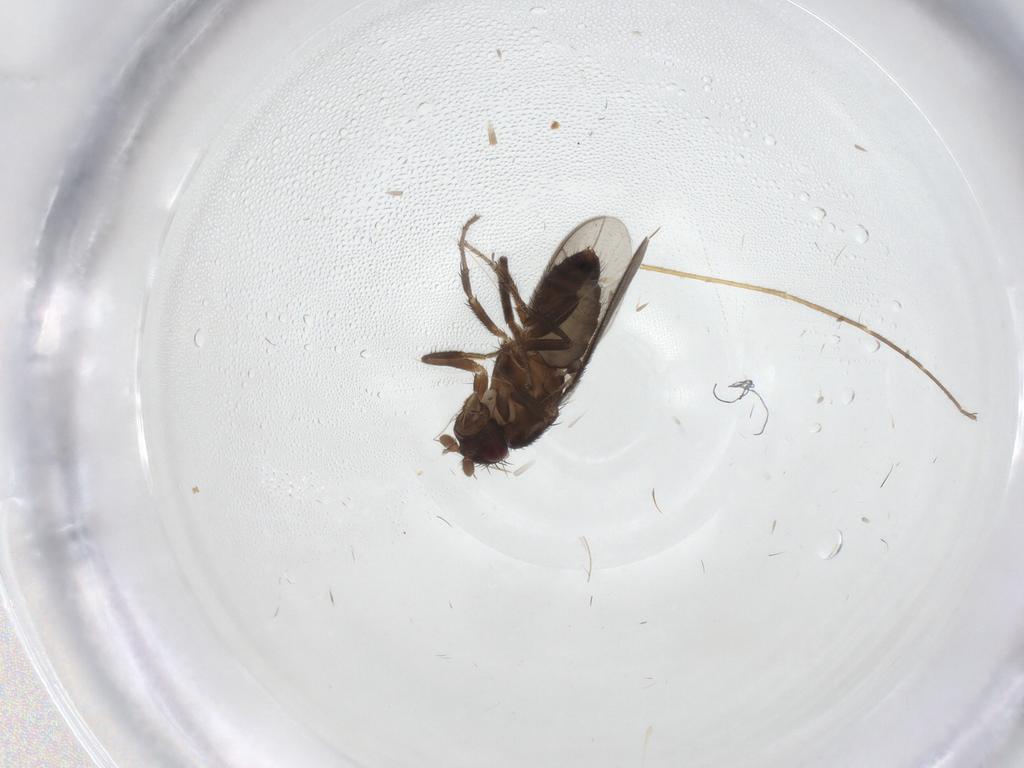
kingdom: Animalia
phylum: Arthropoda
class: Insecta
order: Diptera
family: Chironomidae
